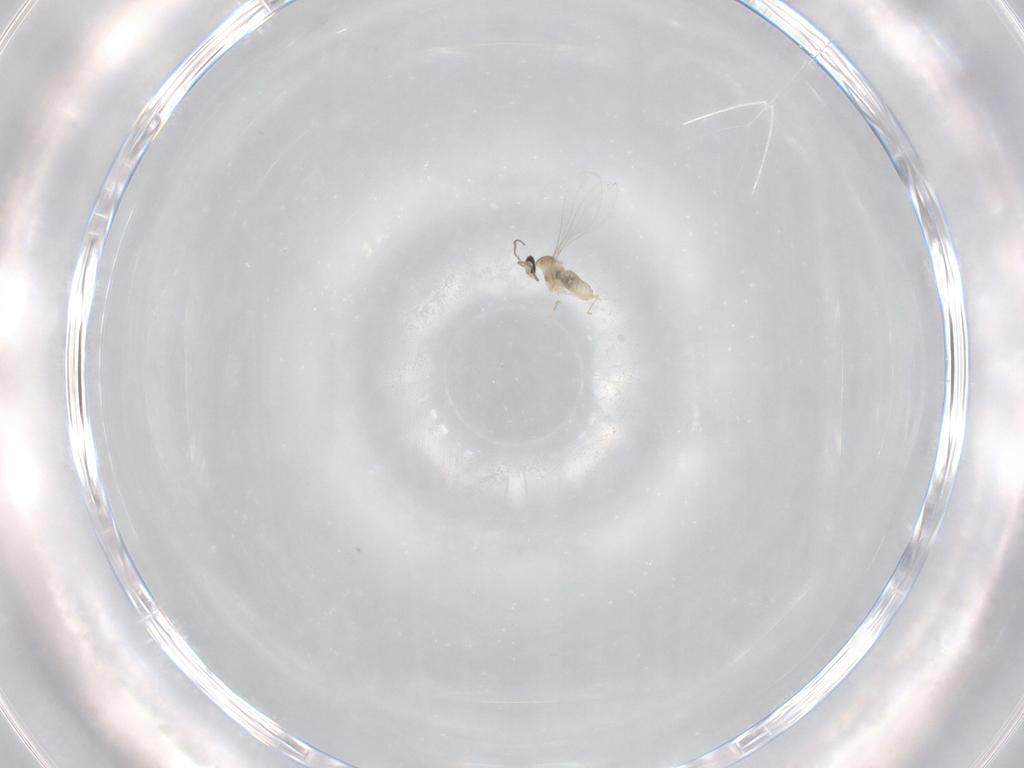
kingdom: Animalia
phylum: Arthropoda
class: Insecta
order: Diptera
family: Cecidomyiidae
